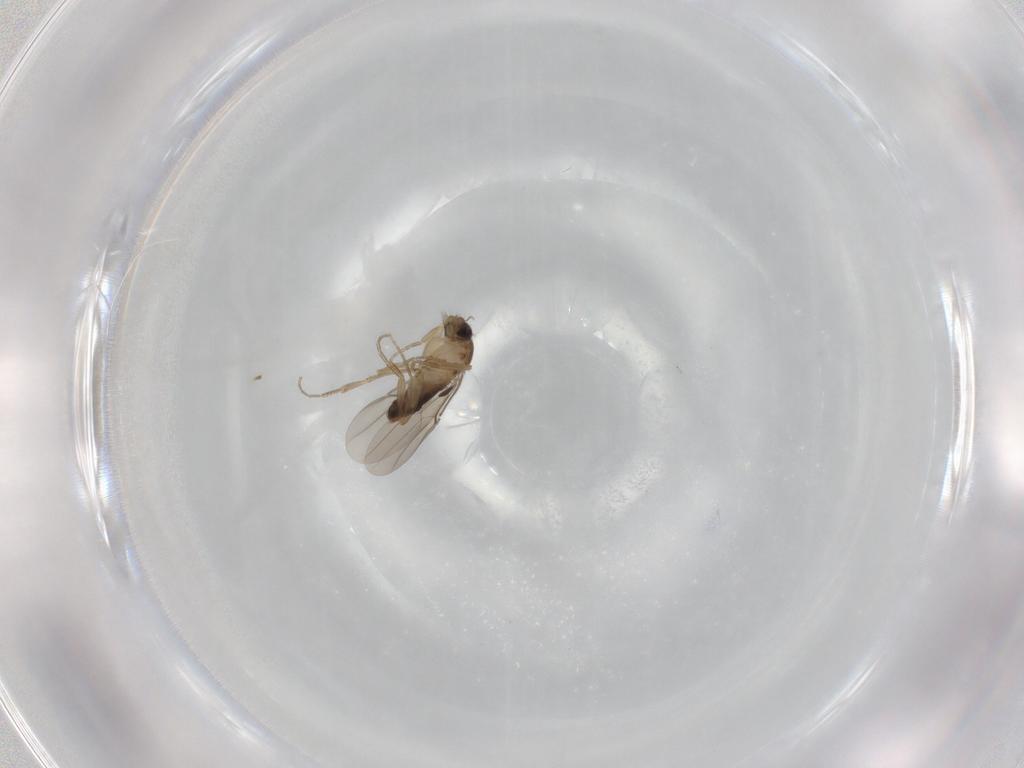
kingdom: Animalia
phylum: Arthropoda
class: Insecta
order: Diptera
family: Phoridae
